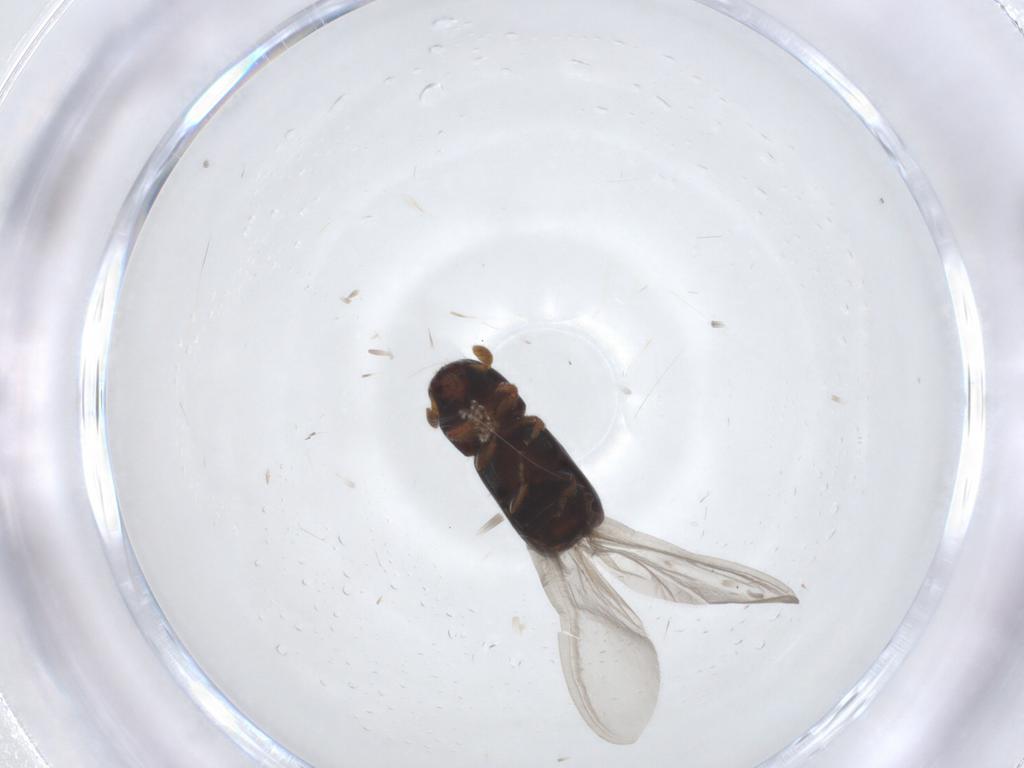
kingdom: Animalia
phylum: Arthropoda
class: Insecta
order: Coleoptera
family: Curculionidae
